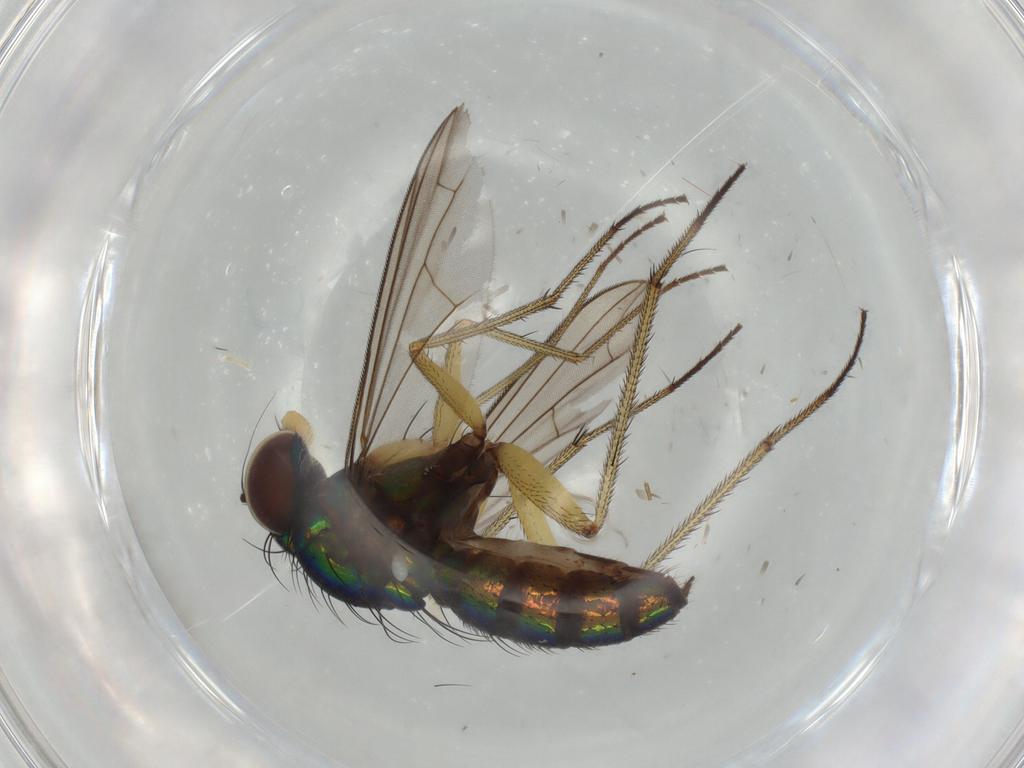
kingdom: Animalia
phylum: Arthropoda
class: Insecta
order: Diptera
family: Dolichopodidae
